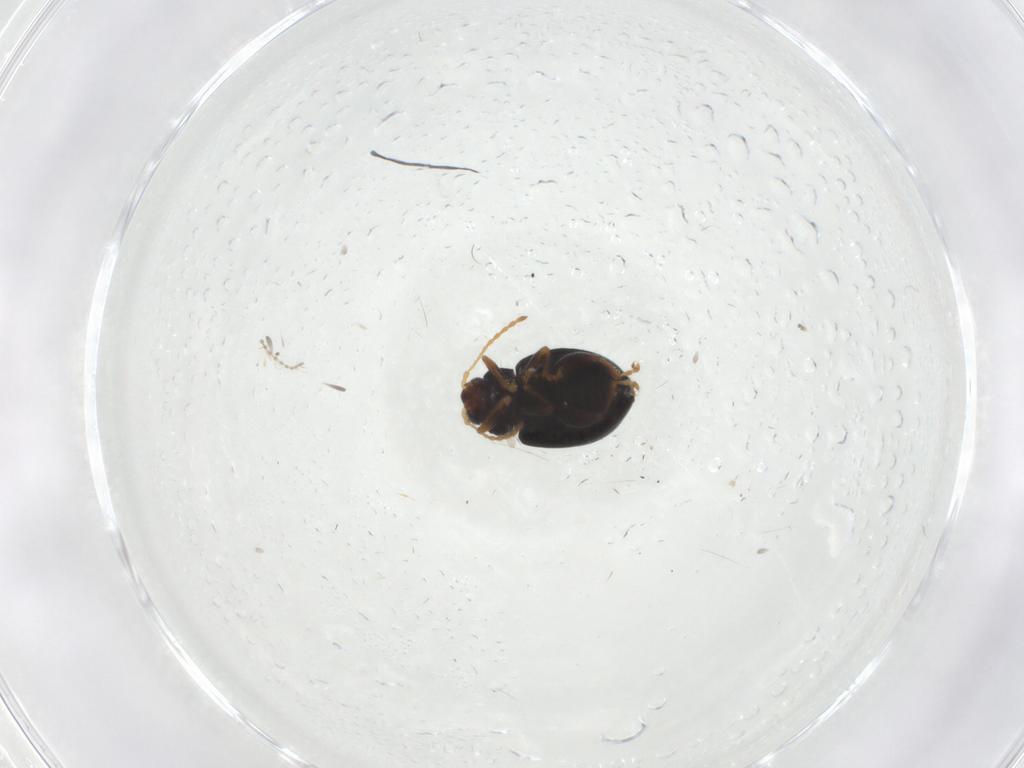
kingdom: Animalia
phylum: Arthropoda
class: Insecta
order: Coleoptera
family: Chrysomelidae
